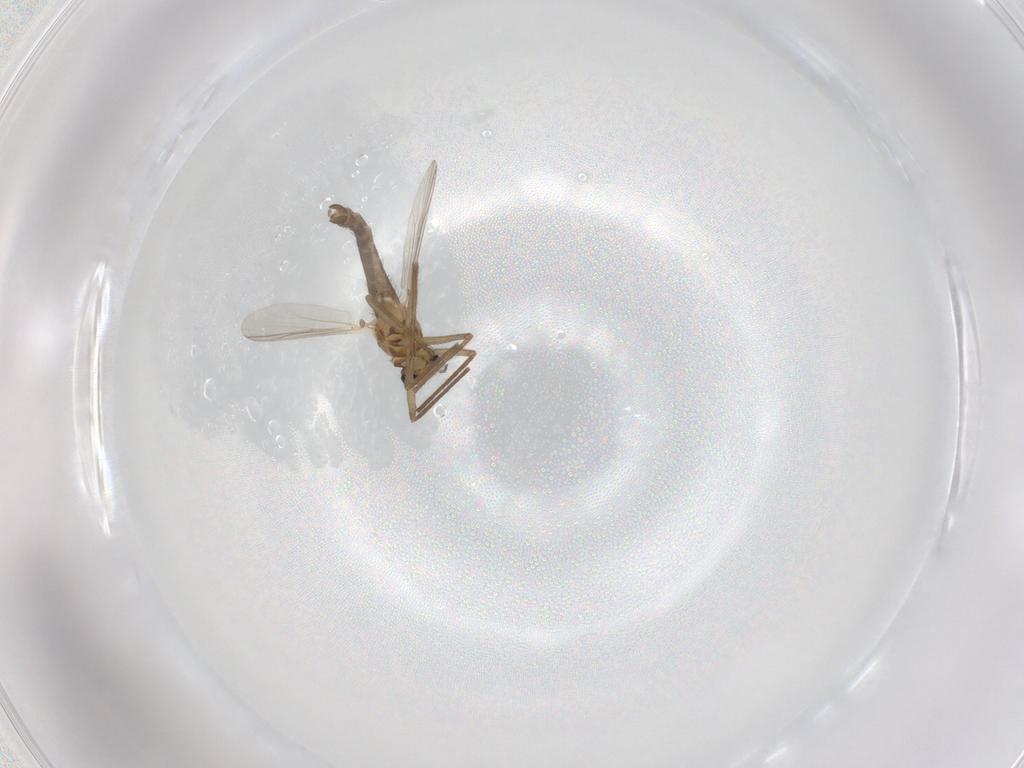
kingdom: Animalia
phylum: Arthropoda
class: Insecta
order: Diptera
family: Chironomidae
